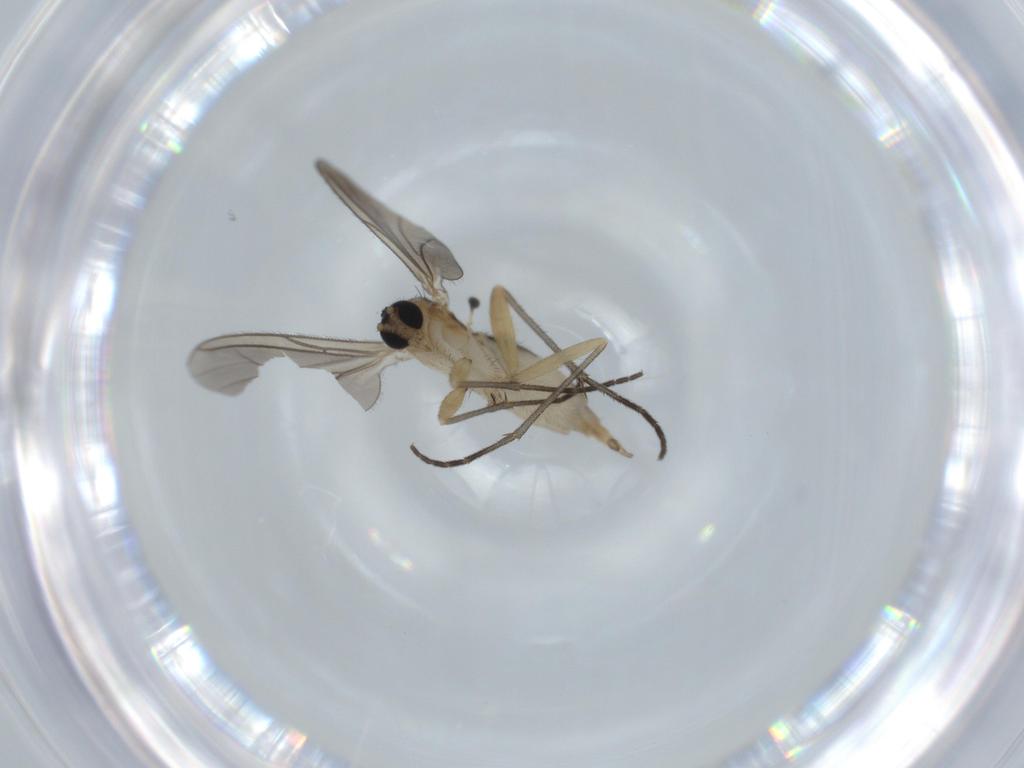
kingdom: Animalia
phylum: Arthropoda
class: Insecta
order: Diptera
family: Sciaridae
